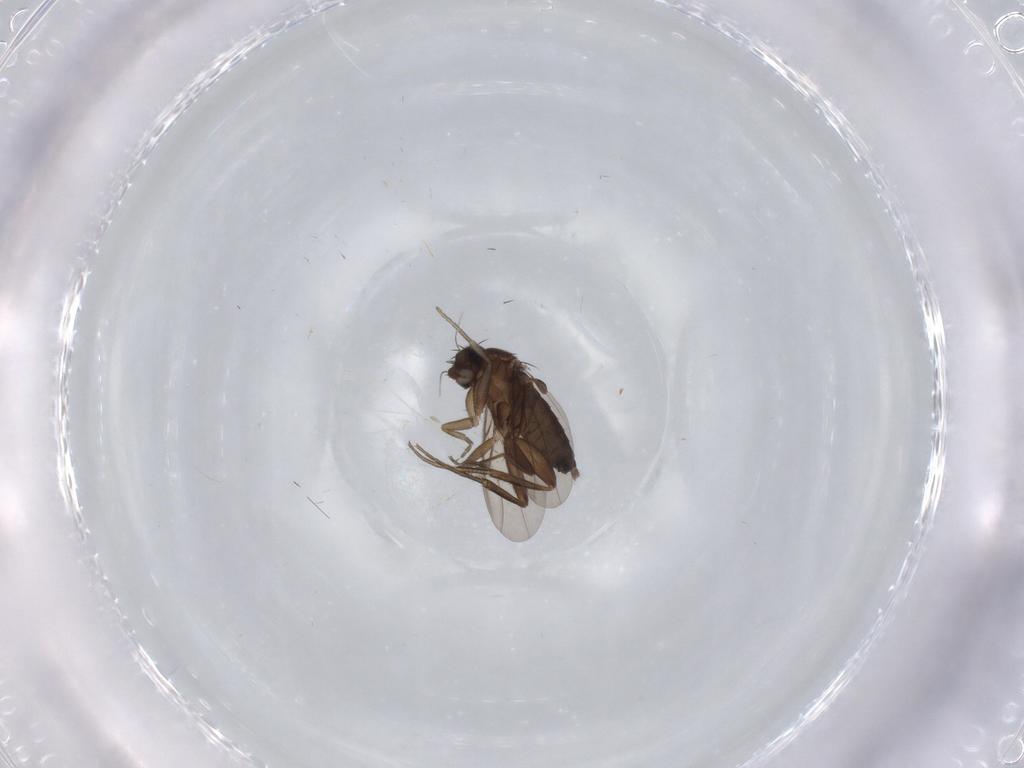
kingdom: Animalia
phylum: Arthropoda
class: Insecta
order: Diptera
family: Phoridae
